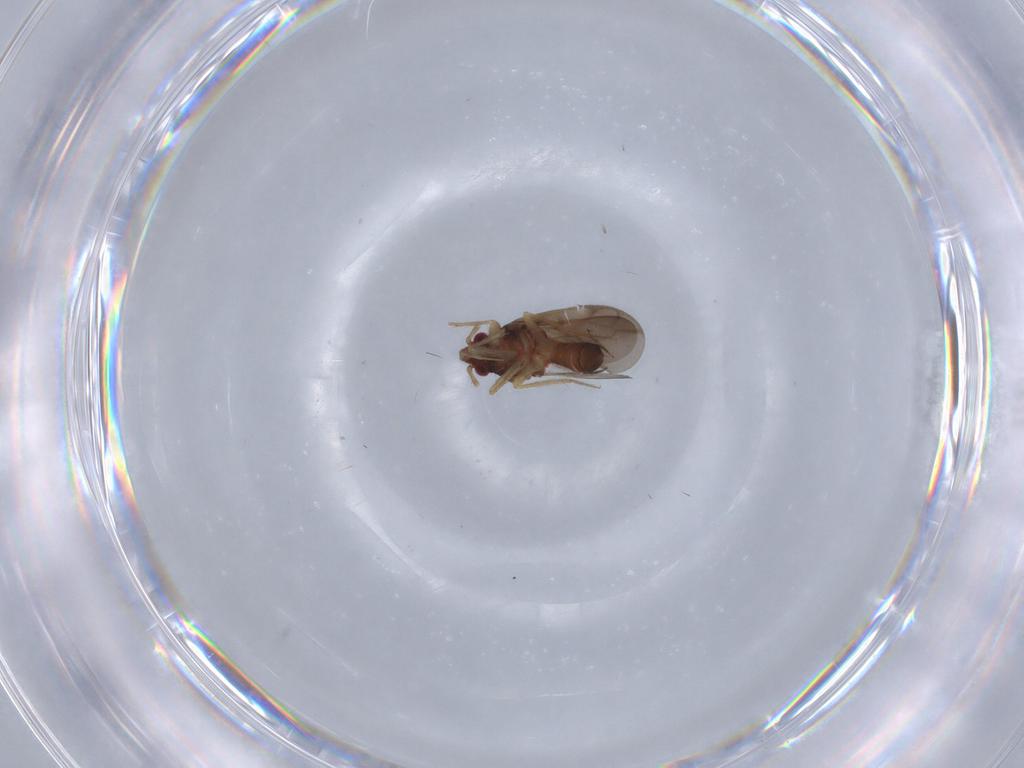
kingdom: Animalia
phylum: Arthropoda
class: Insecta
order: Hemiptera
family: Ceratocombidae
